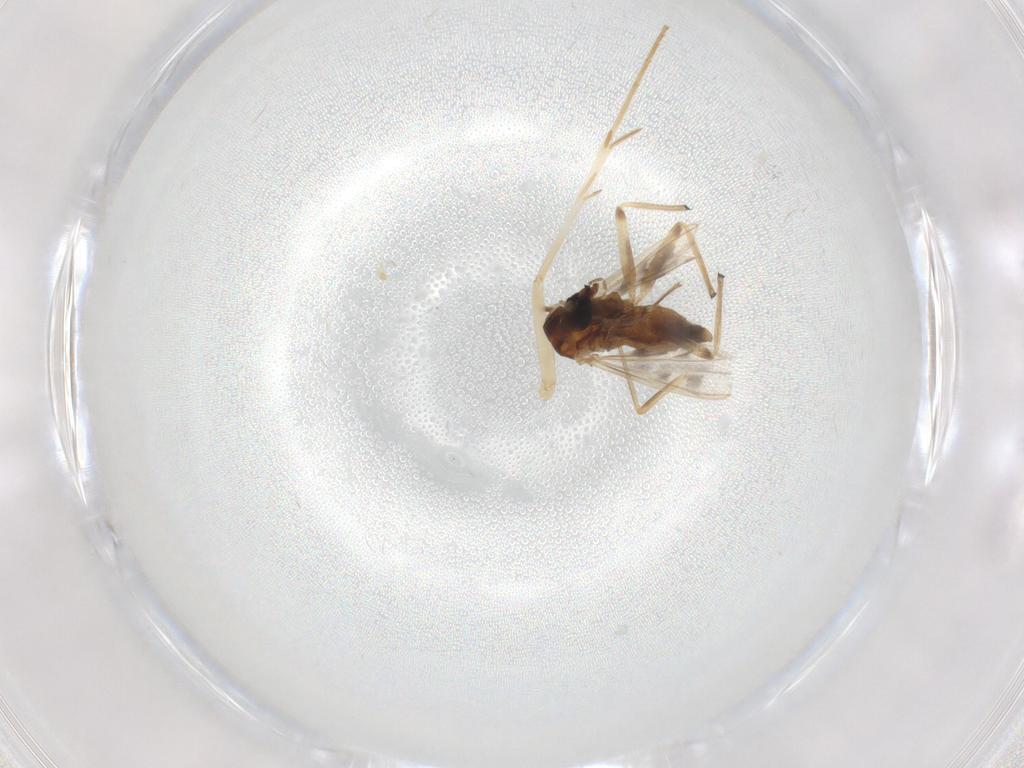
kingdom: Animalia
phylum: Arthropoda
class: Insecta
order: Diptera
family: Chironomidae
